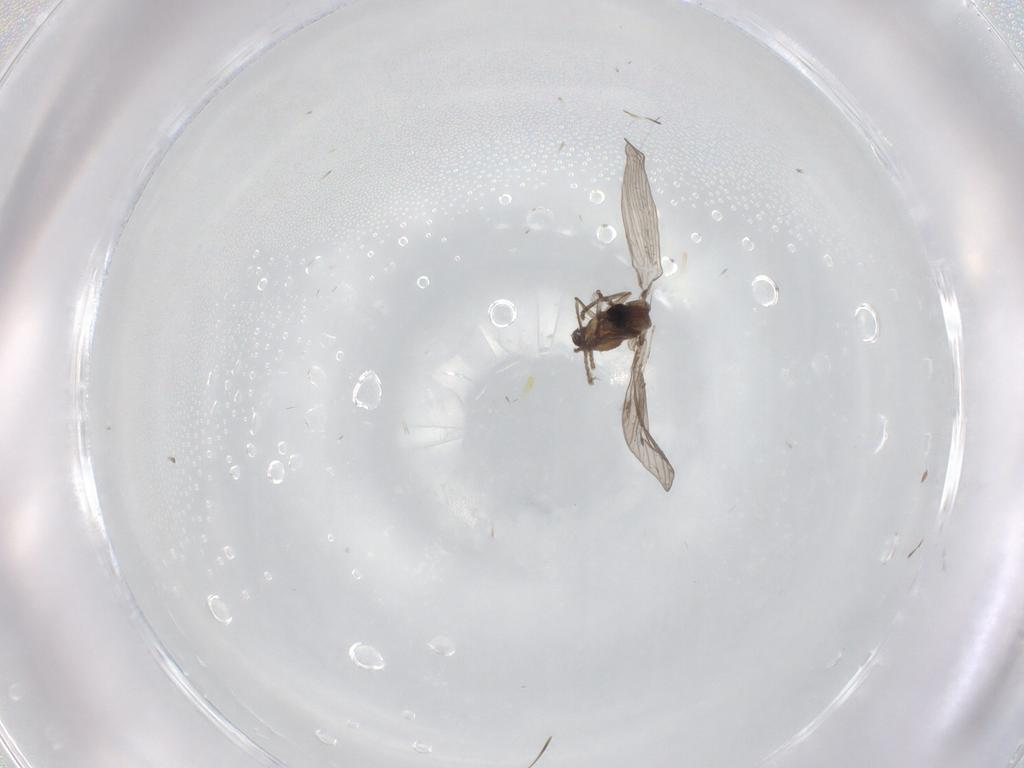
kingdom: Animalia
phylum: Arthropoda
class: Insecta
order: Diptera
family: Psychodidae
